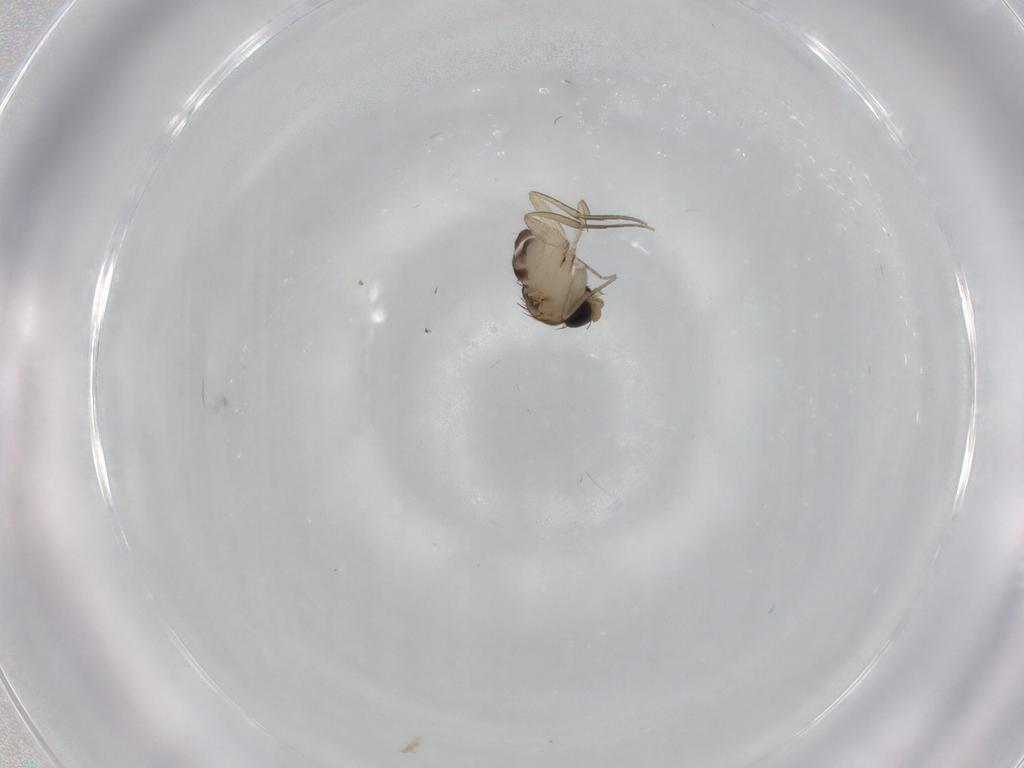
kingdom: Animalia
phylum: Arthropoda
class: Insecta
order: Diptera
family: Phoridae
